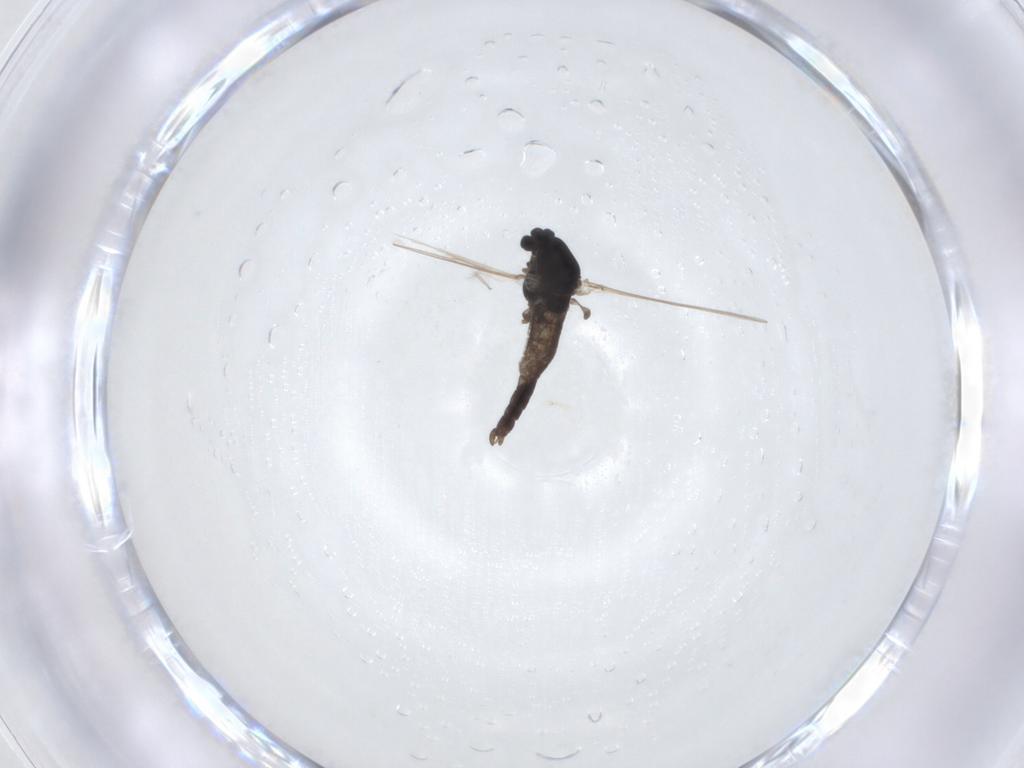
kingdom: Animalia
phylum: Arthropoda
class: Insecta
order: Diptera
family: Chironomidae
